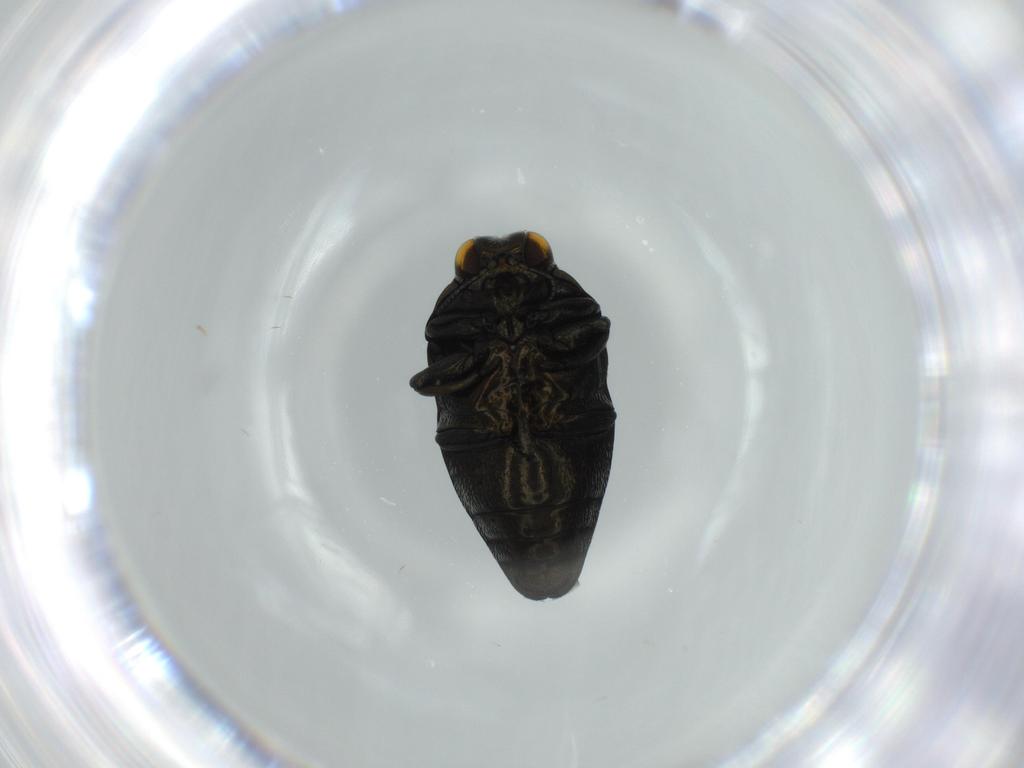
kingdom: Animalia
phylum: Arthropoda
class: Insecta
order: Coleoptera
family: Buprestidae
